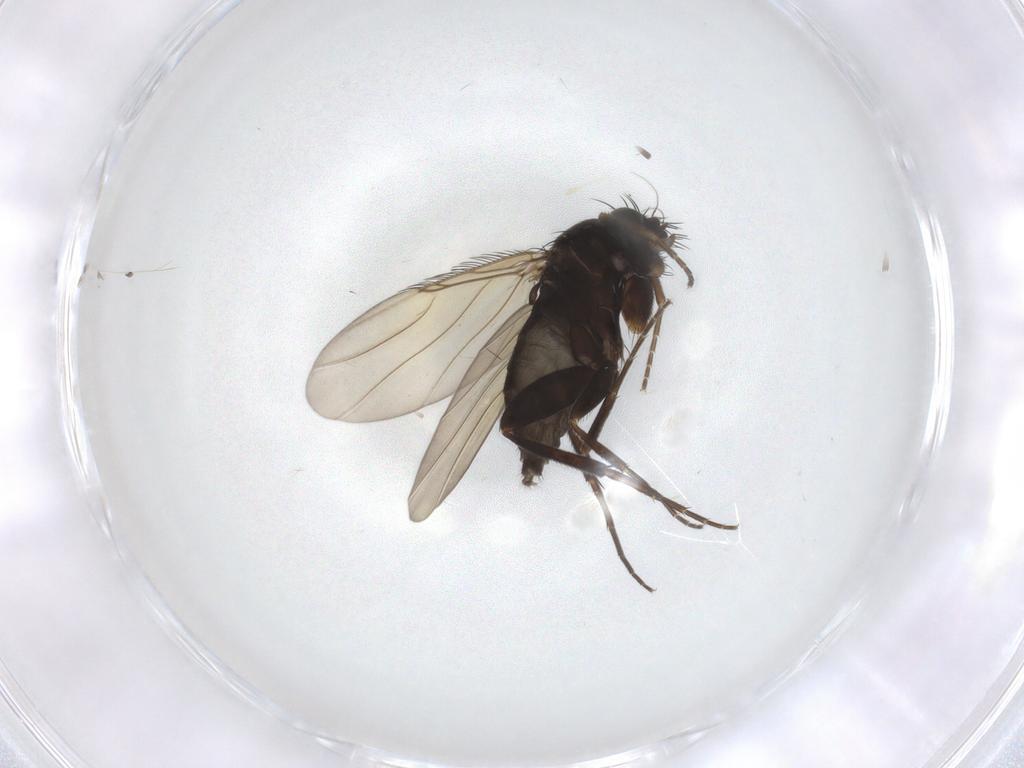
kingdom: Animalia
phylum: Arthropoda
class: Insecta
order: Diptera
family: Phoridae
